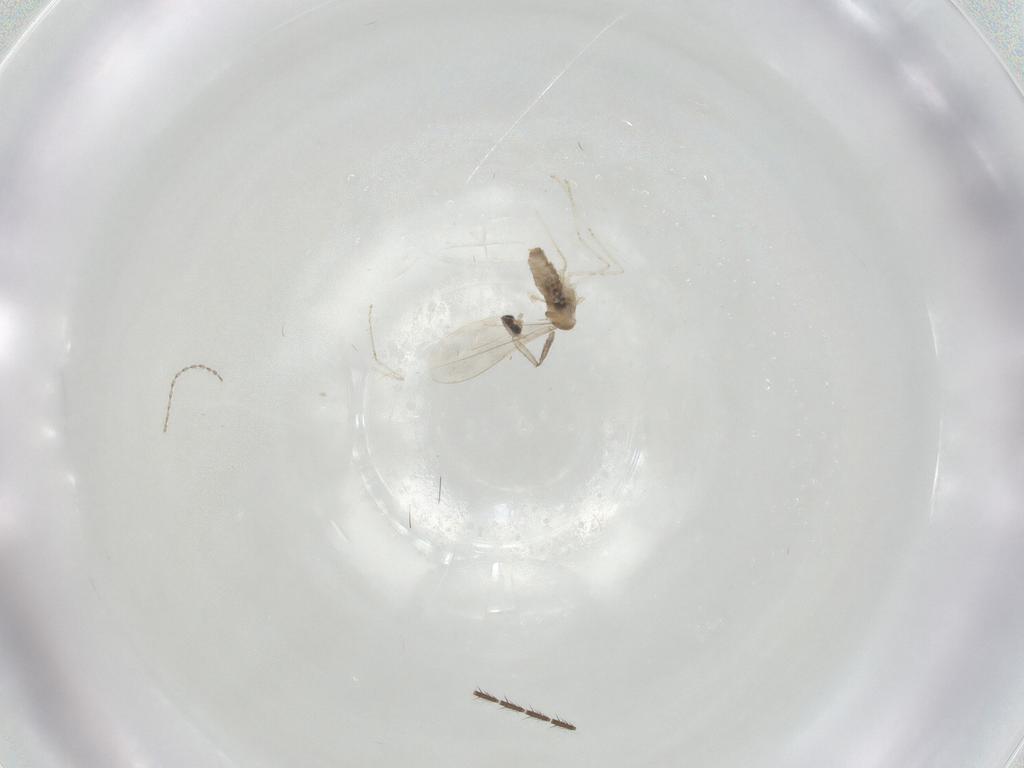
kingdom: Animalia
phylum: Arthropoda
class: Insecta
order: Diptera
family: Cecidomyiidae
